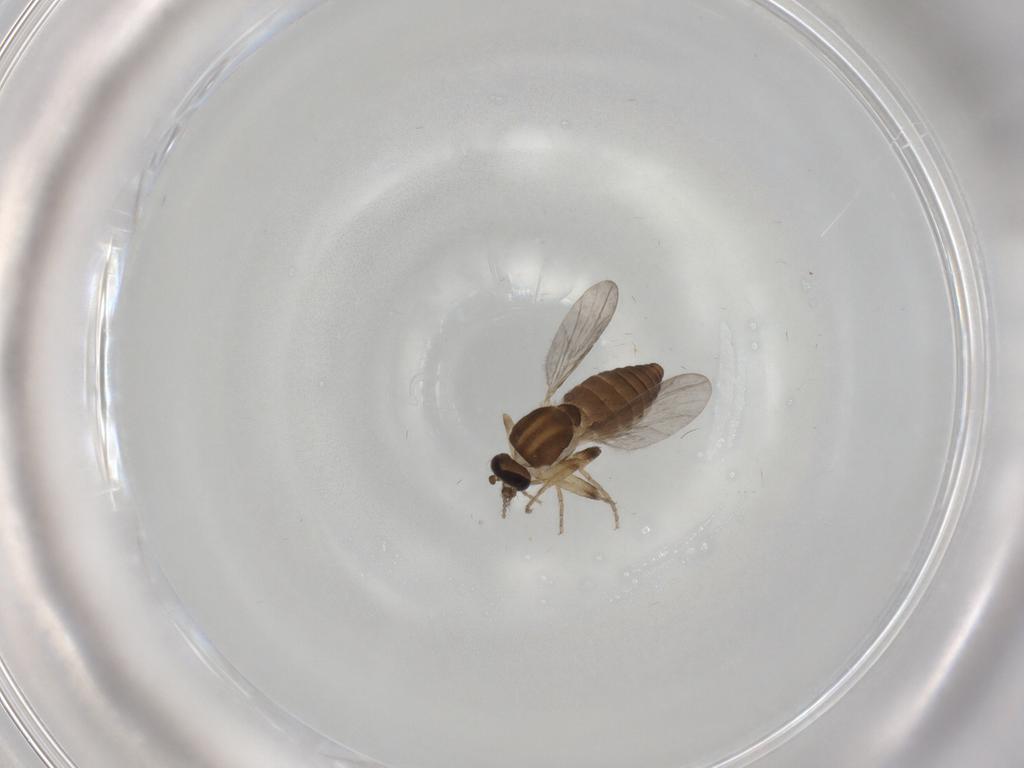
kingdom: Animalia
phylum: Arthropoda
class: Insecta
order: Diptera
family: Ceratopogonidae
